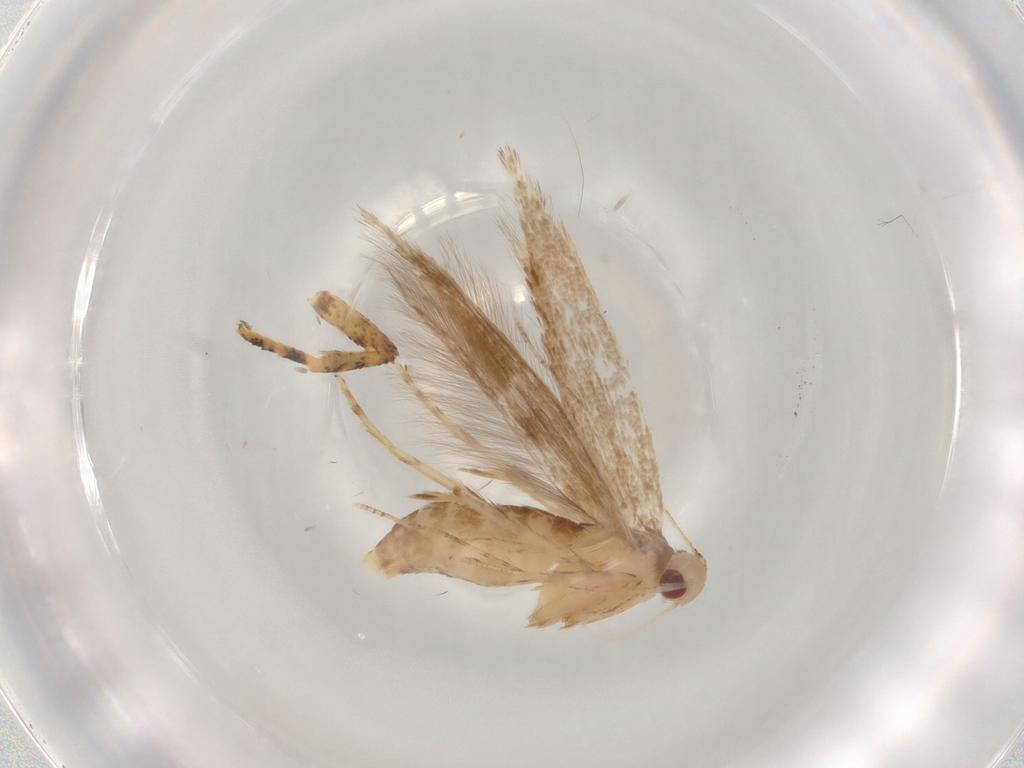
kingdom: Animalia
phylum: Arthropoda
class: Insecta
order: Lepidoptera
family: Cosmopterigidae
